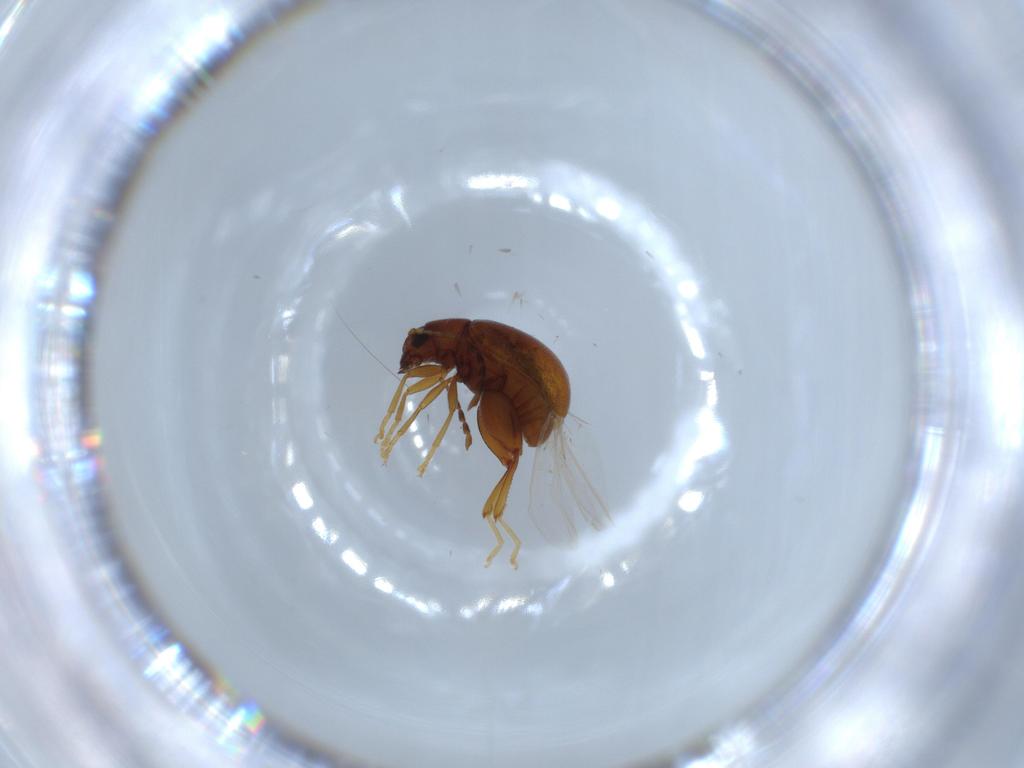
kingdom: Animalia
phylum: Arthropoda
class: Insecta
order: Coleoptera
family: Chrysomelidae
